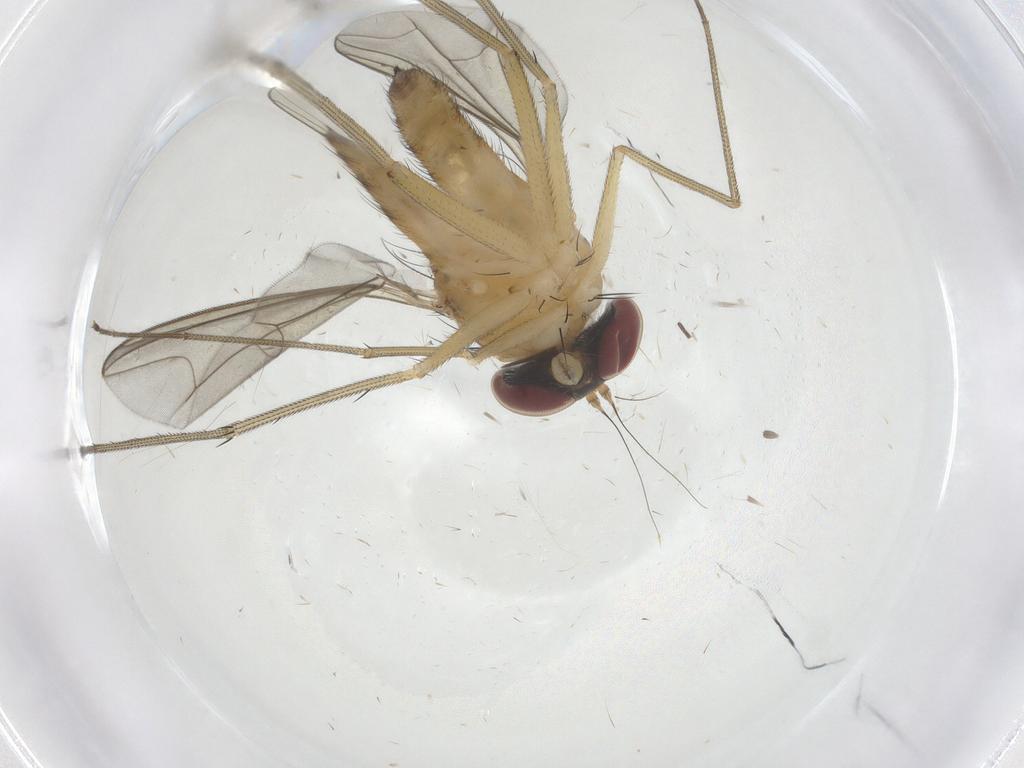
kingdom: Animalia
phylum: Arthropoda
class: Insecta
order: Diptera
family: Dolichopodidae
